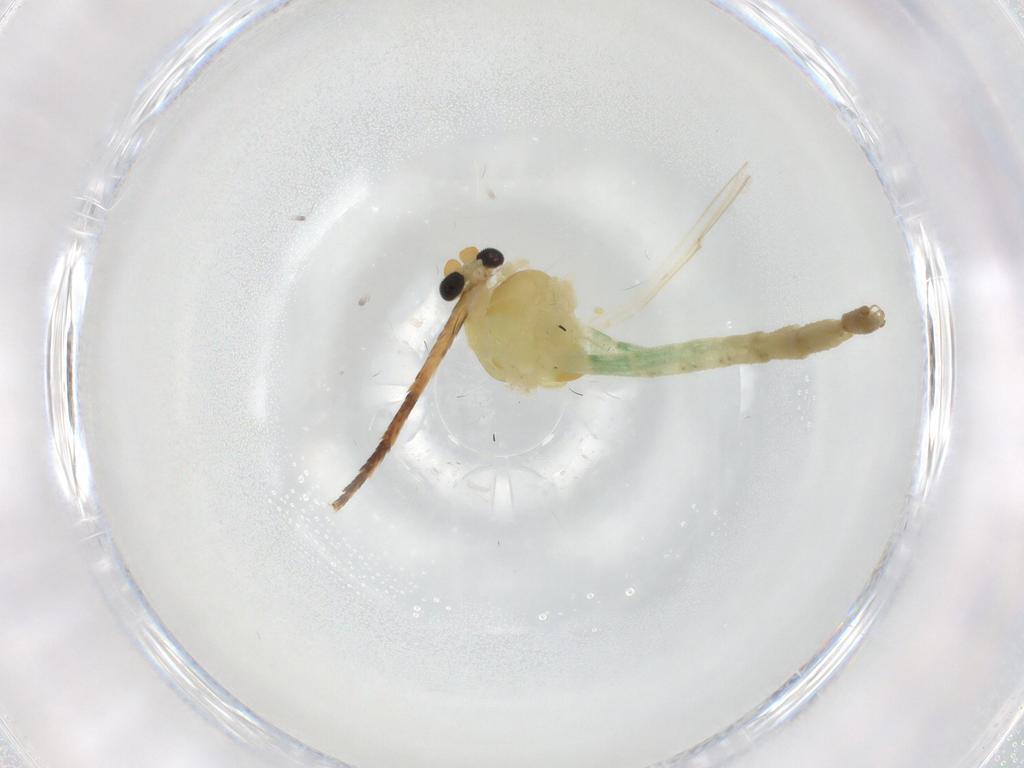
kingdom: Animalia
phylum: Arthropoda
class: Insecta
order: Diptera
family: Chironomidae
